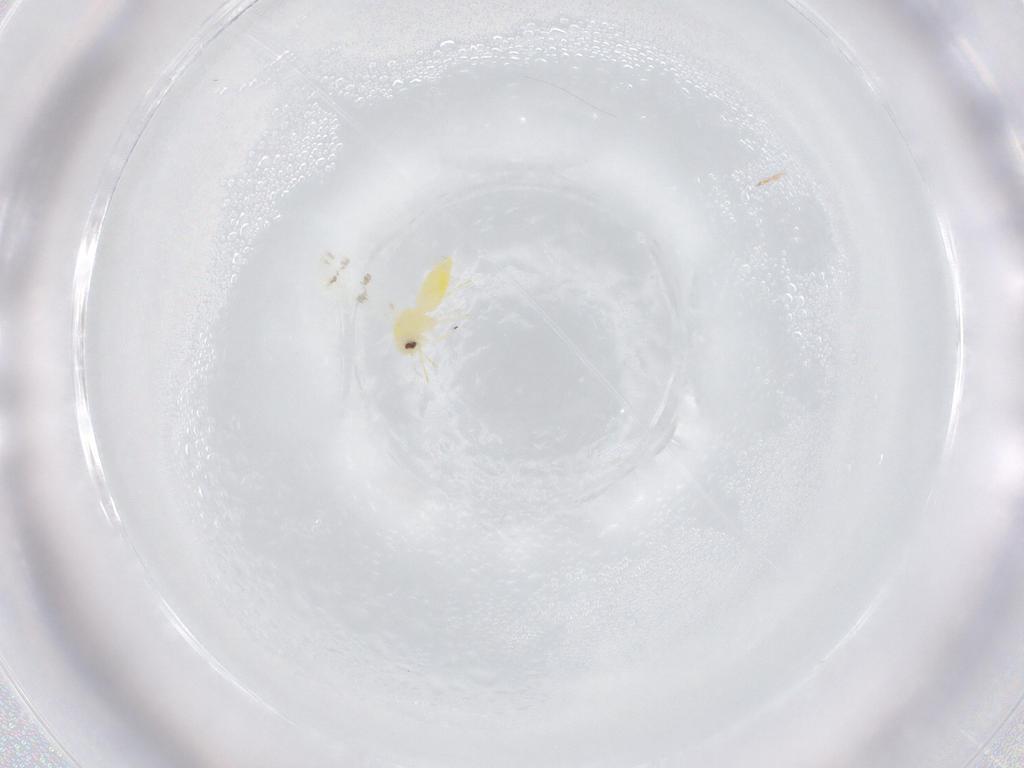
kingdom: Animalia
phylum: Arthropoda
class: Insecta
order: Hemiptera
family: Aleyrodidae
